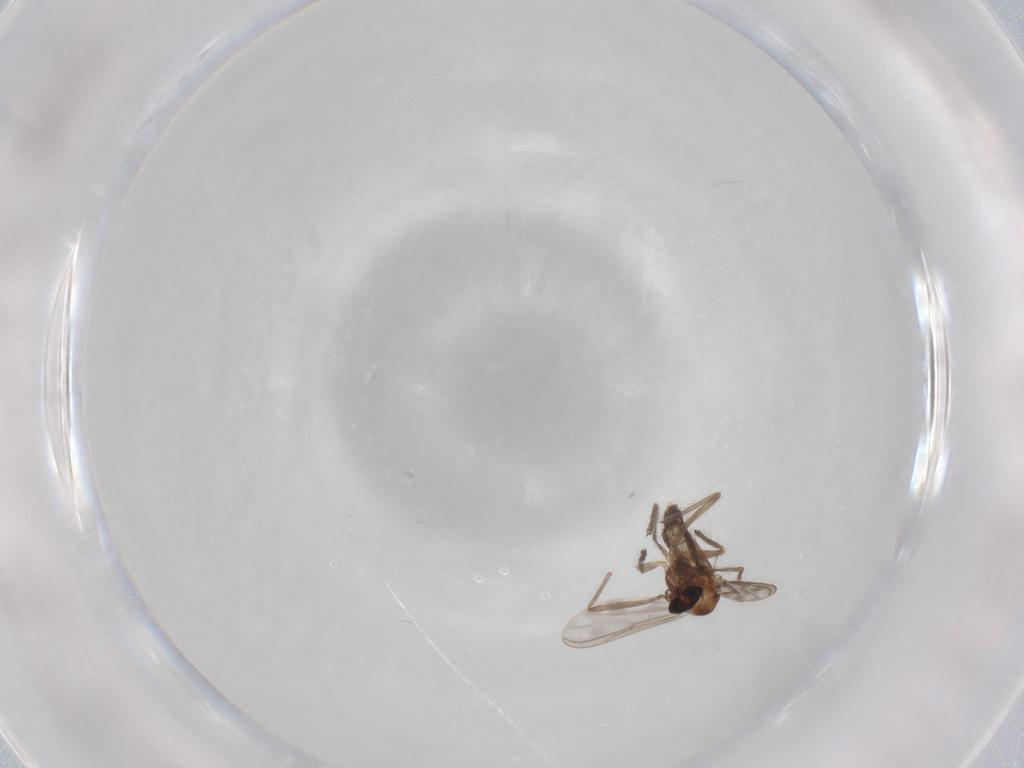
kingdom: Animalia
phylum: Arthropoda
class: Insecta
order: Diptera
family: Chironomidae
